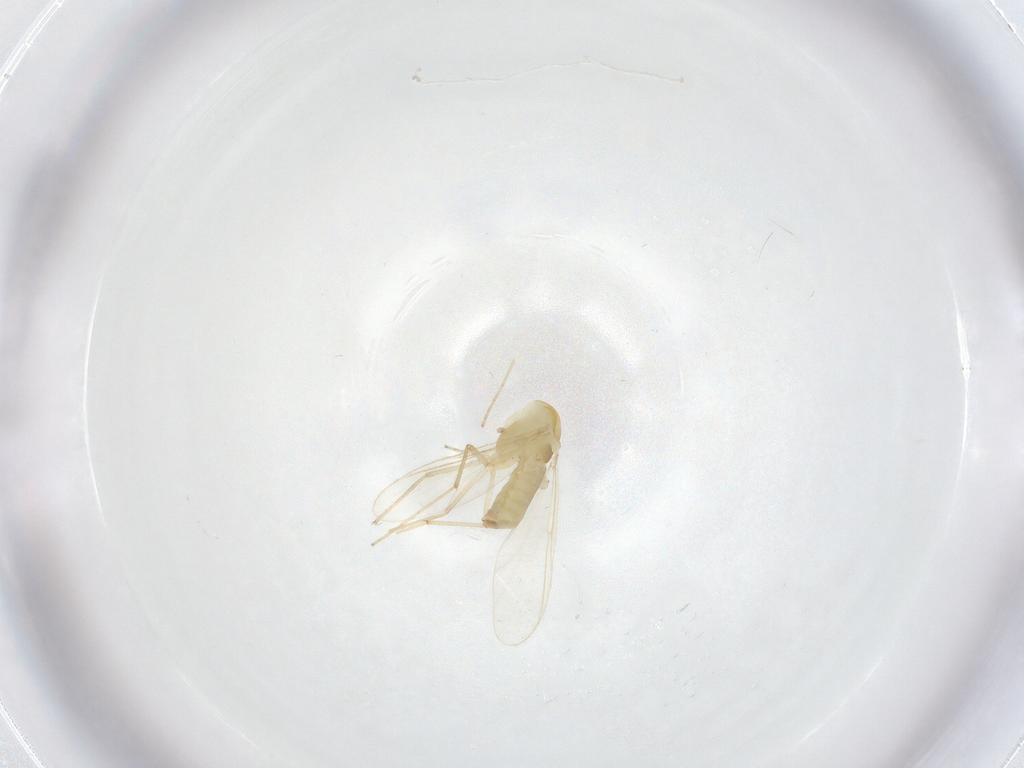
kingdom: Animalia
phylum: Arthropoda
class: Insecta
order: Diptera
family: Chironomidae
